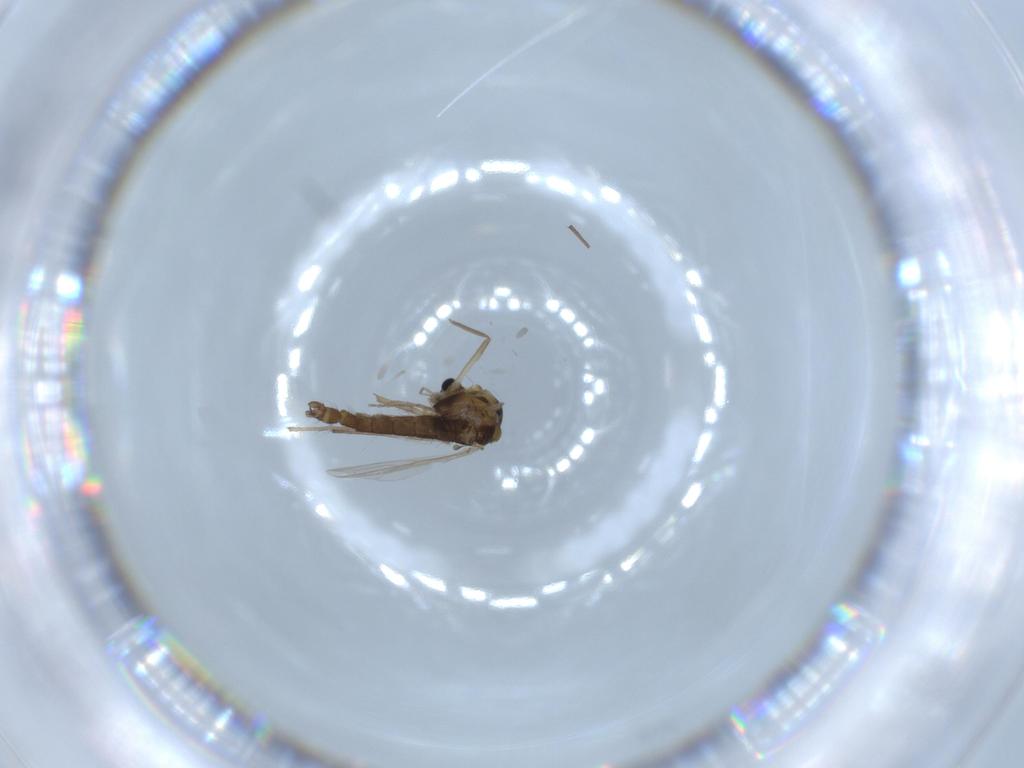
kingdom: Animalia
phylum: Arthropoda
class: Insecta
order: Diptera
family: Chironomidae
